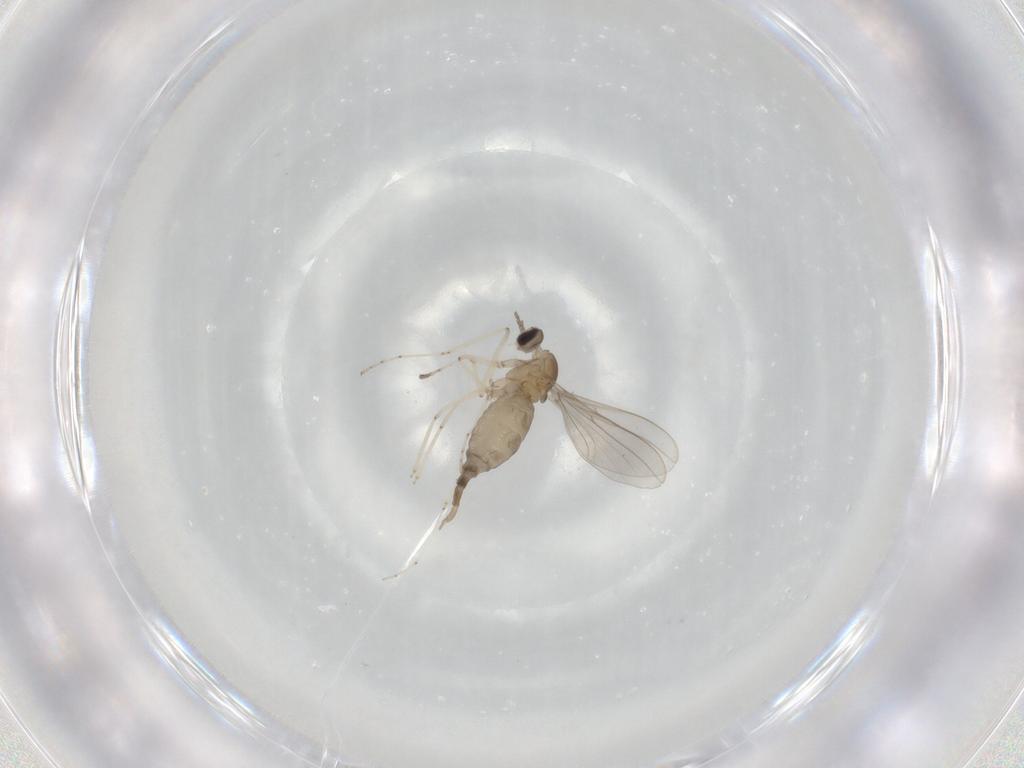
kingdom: Animalia
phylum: Arthropoda
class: Insecta
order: Diptera
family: Cecidomyiidae
